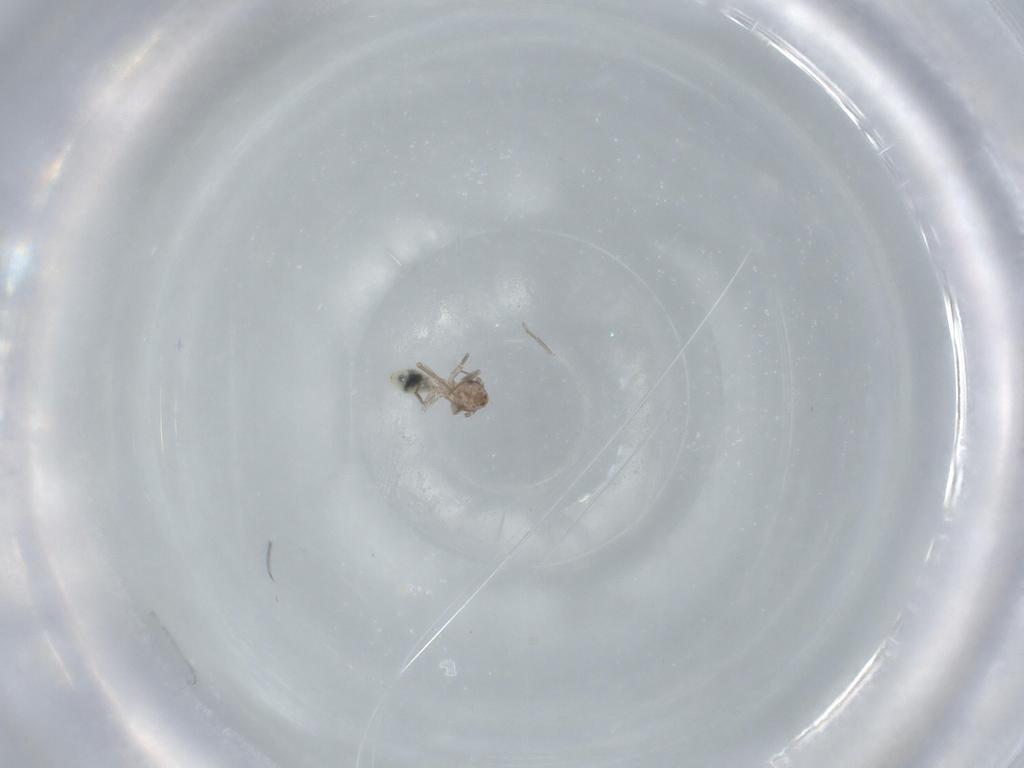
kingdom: Animalia
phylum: Arthropoda
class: Insecta
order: Psocodea
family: Lepidopsocidae
